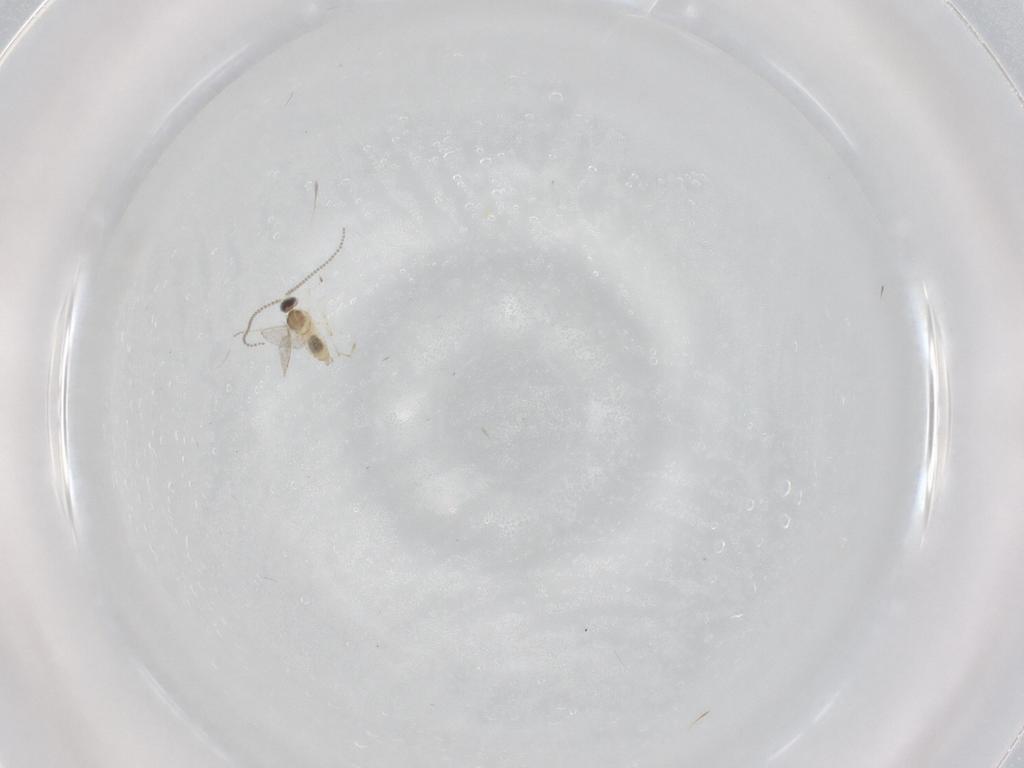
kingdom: Animalia
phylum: Arthropoda
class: Insecta
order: Diptera
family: Cecidomyiidae
